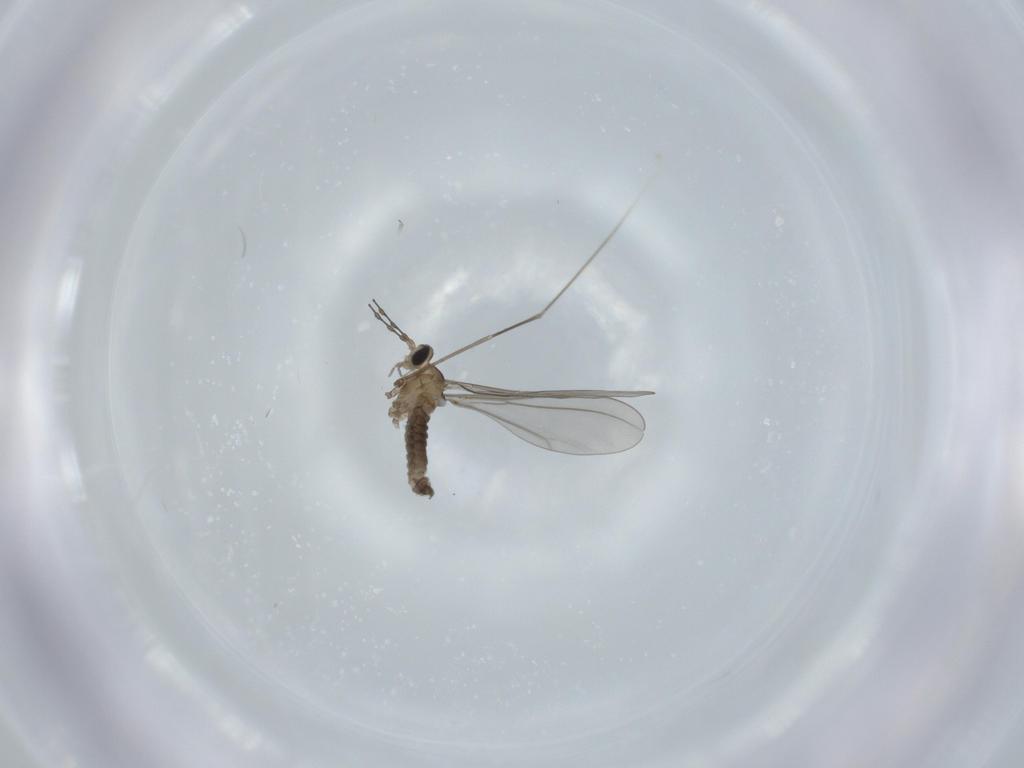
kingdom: Animalia
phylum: Arthropoda
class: Insecta
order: Diptera
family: Cecidomyiidae
